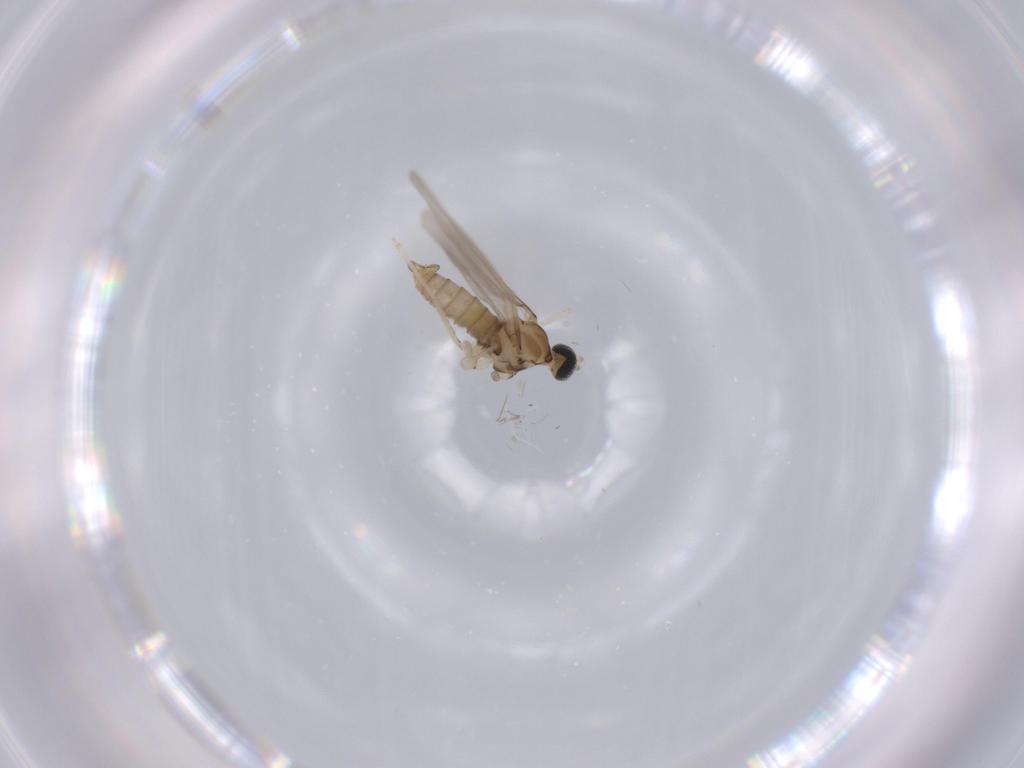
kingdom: Animalia
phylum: Arthropoda
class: Insecta
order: Diptera
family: Tabanidae
